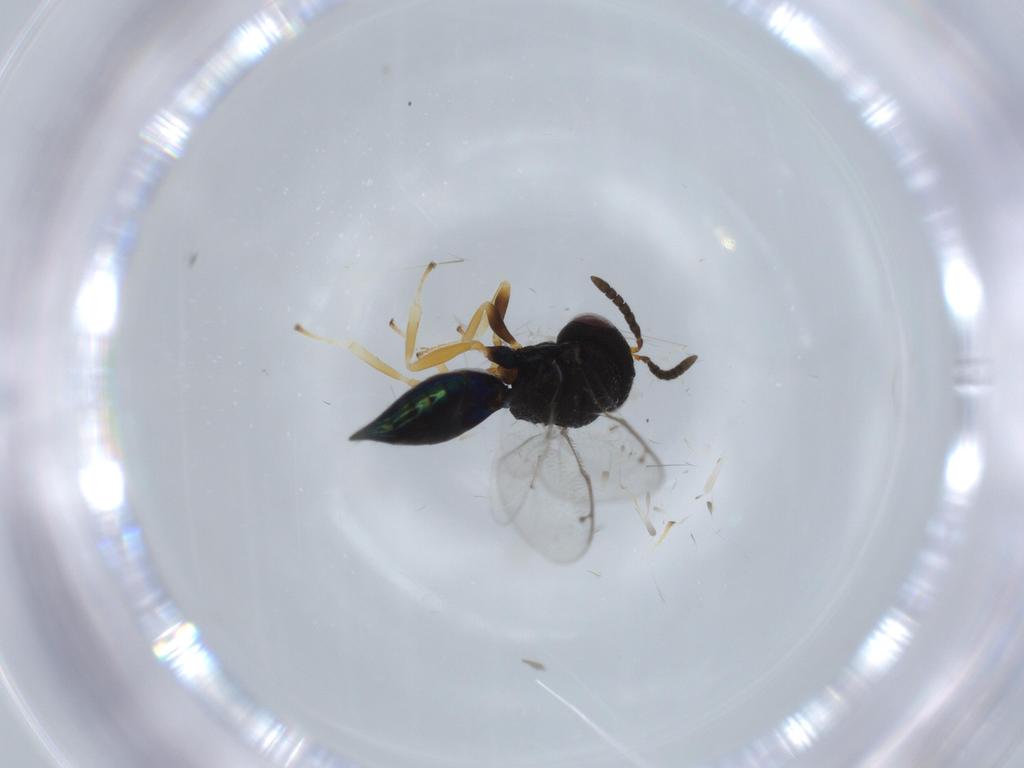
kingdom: Animalia
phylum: Arthropoda
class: Insecta
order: Hymenoptera
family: Pteromalidae
